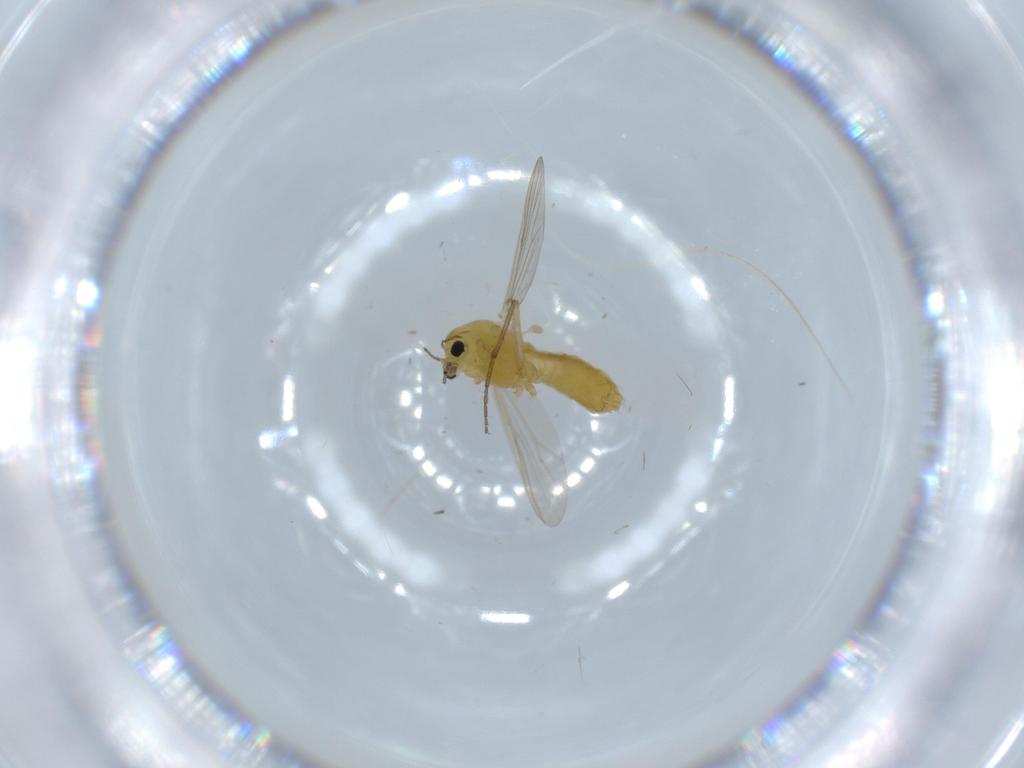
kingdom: Animalia
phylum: Arthropoda
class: Insecta
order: Diptera
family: Chironomidae
